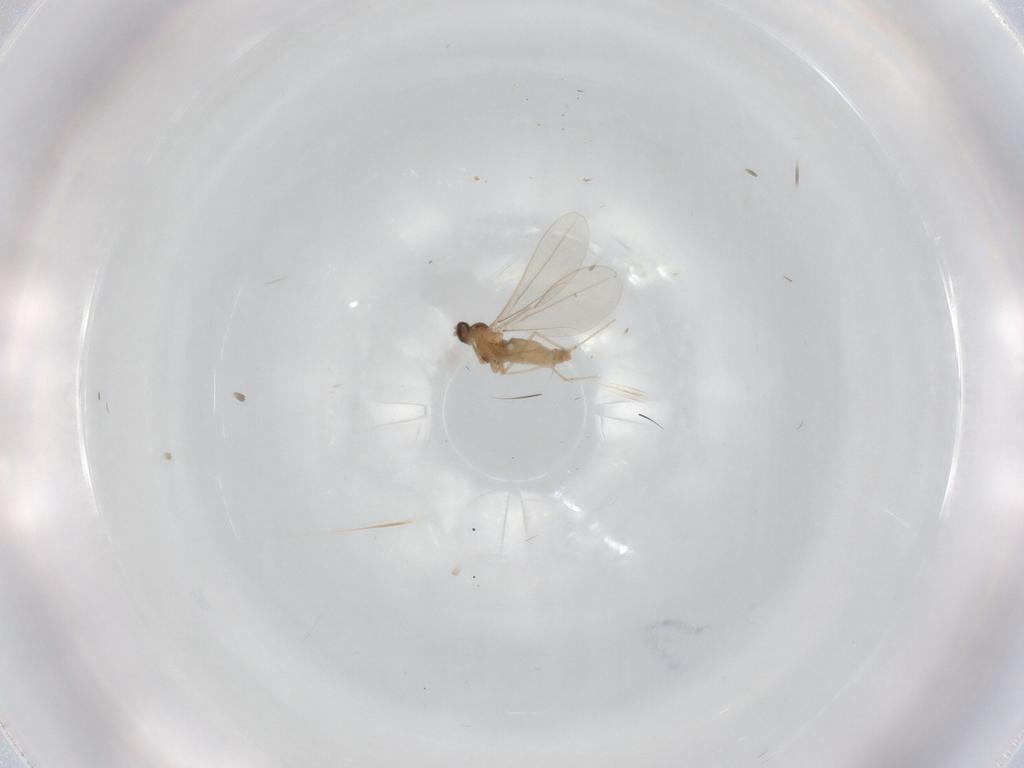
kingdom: Animalia
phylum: Arthropoda
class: Insecta
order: Diptera
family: Cecidomyiidae
